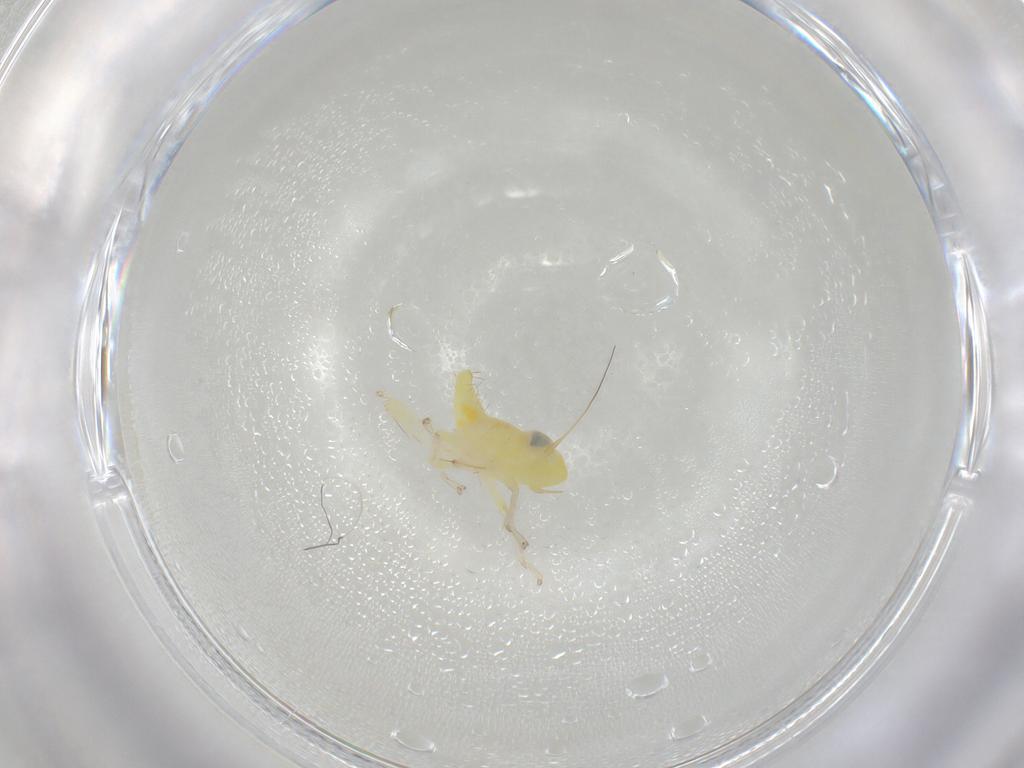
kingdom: Animalia
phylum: Arthropoda
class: Insecta
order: Hemiptera
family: Cicadellidae
